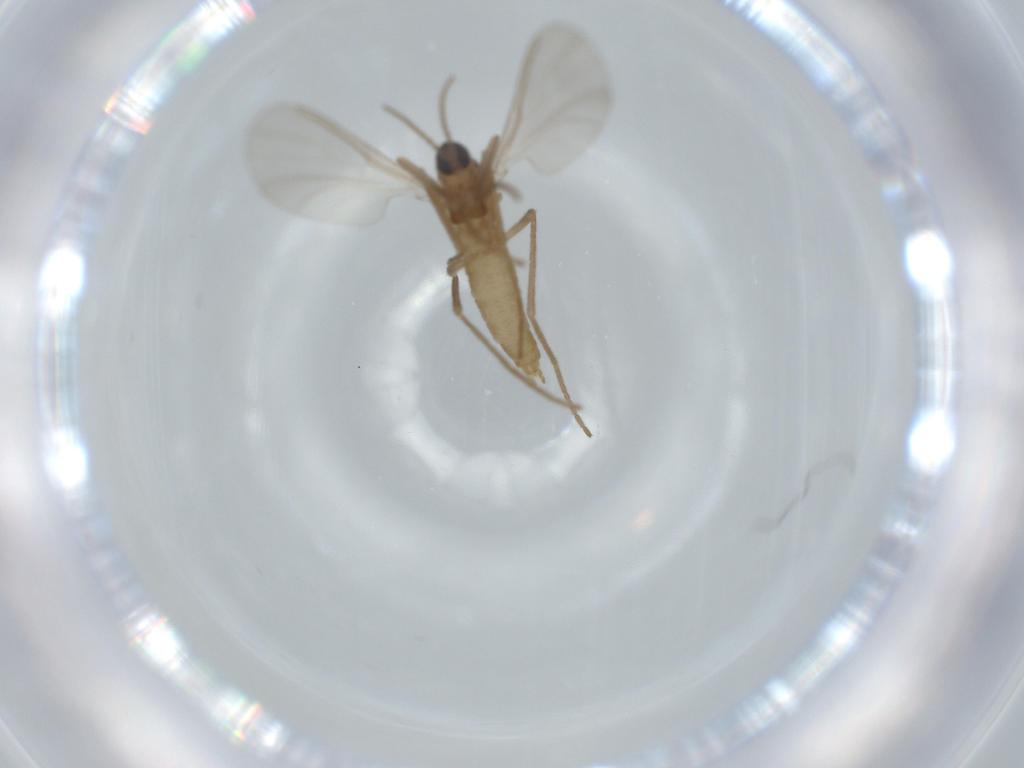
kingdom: Animalia
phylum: Arthropoda
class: Insecta
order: Diptera
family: Cecidomyiidae
